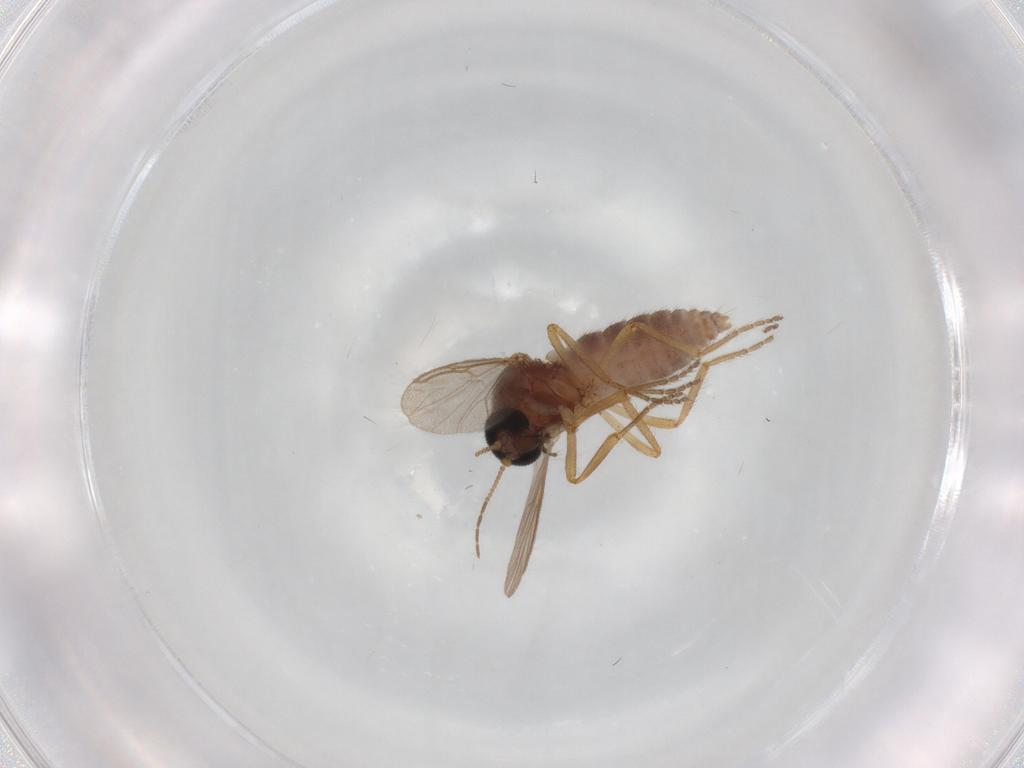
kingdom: Animalia
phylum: Arthropoda
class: Insecta
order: Diptera
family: Ceratopogonidae
